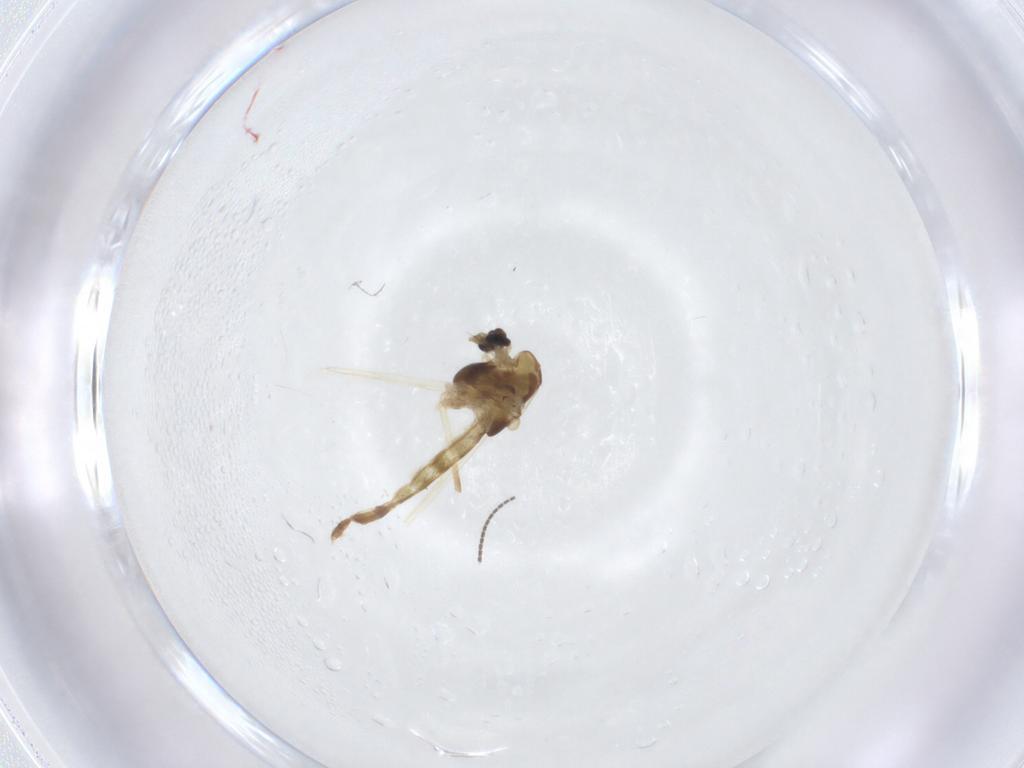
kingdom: Animalia
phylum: Arthropoda
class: Insecta
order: Diptera
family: Chironomidae
